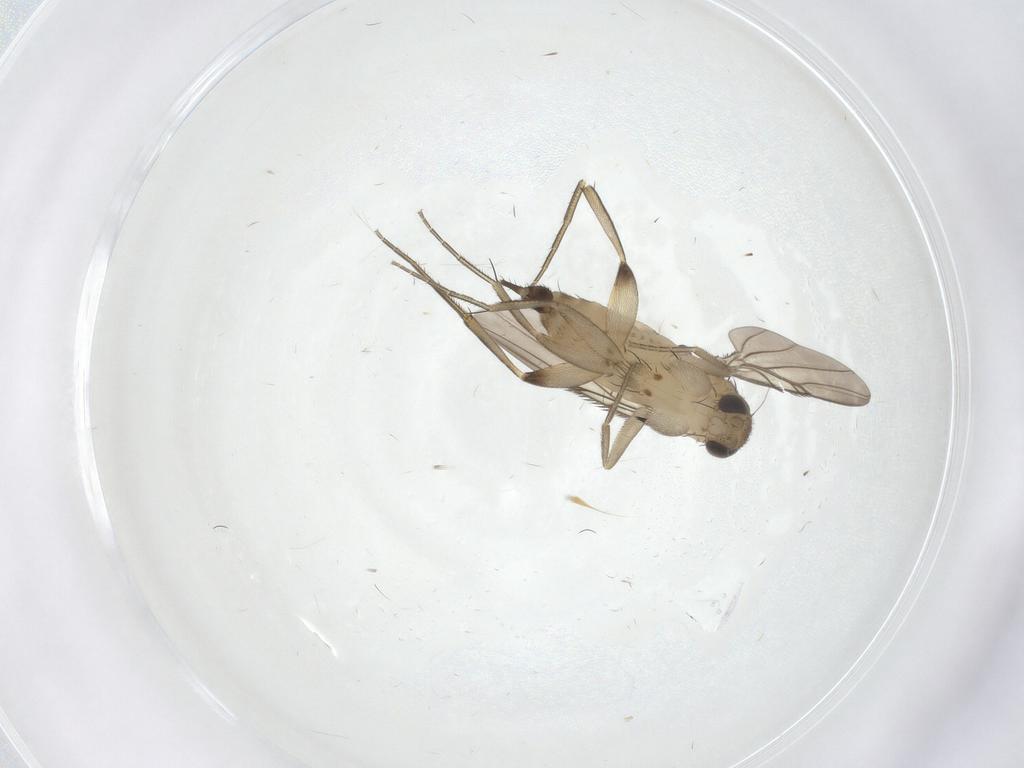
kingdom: Animalia
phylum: Arthropoda
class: Insecta
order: Diptera
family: Phoridae
